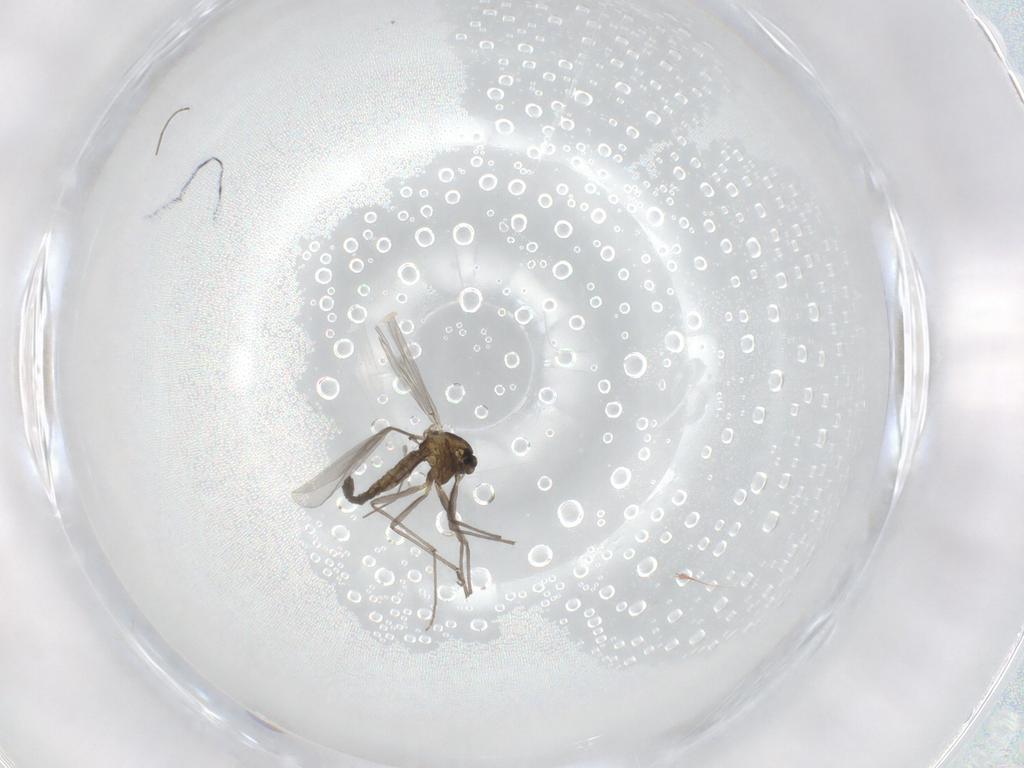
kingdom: Animalia
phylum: Arthropoda
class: Insecta
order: Diptera
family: Chironomidae
